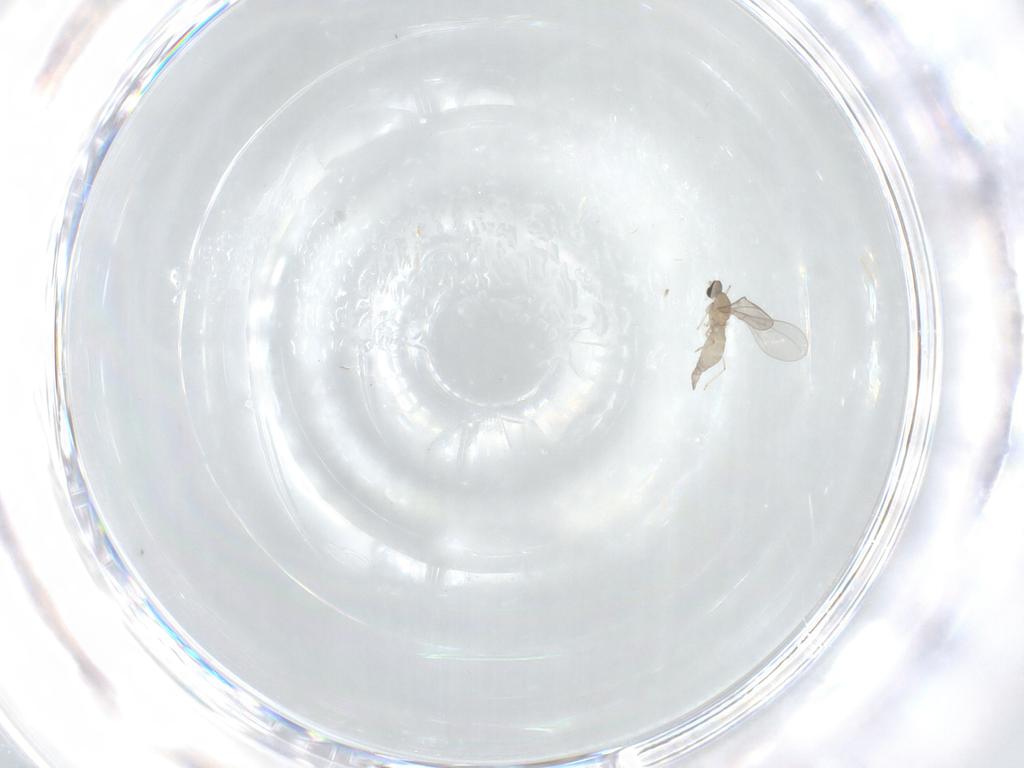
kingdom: Animalia
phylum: Arthropoda
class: Insecta
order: Diptera
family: Cecidomyiidae
